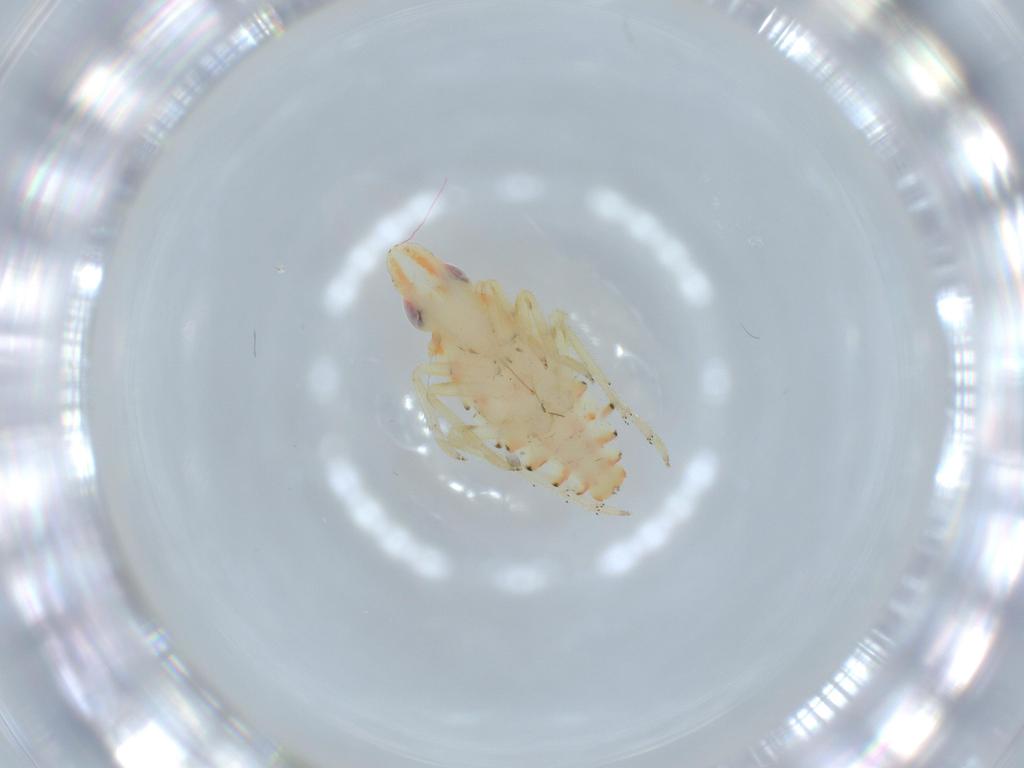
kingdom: Animalia
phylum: Arthropoda
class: Insecta
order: Hemiptera
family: Tropiduchidae
